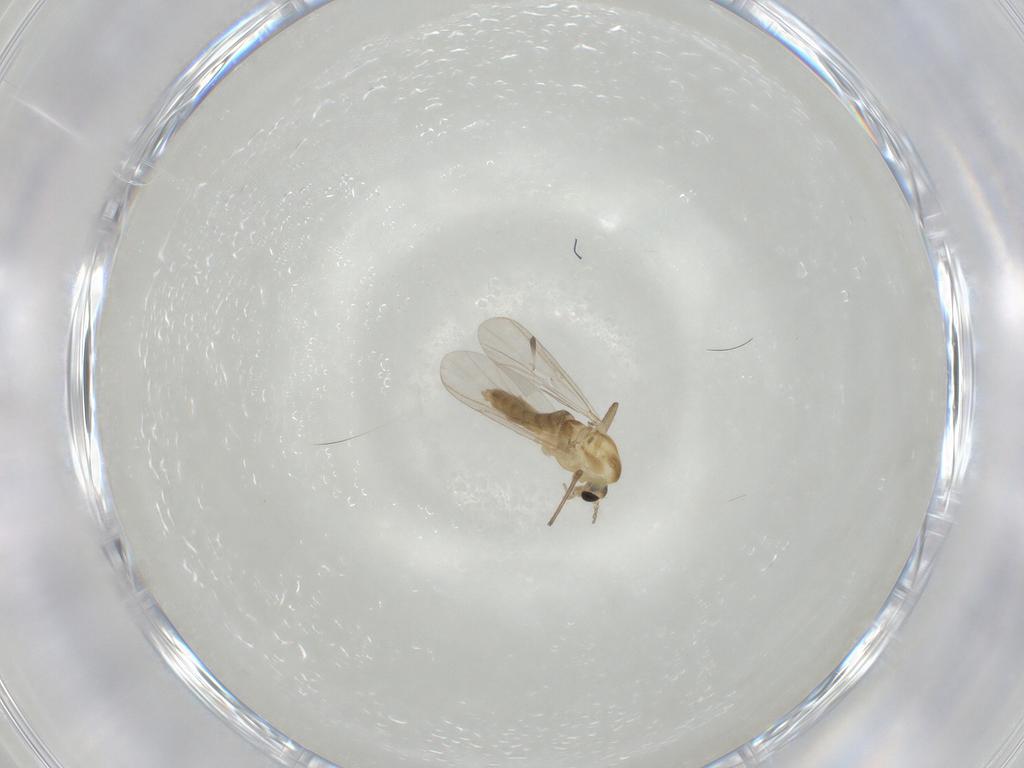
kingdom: Animalia
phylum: Arthropoda
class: Insecta
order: Diptera
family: Chironomidae
